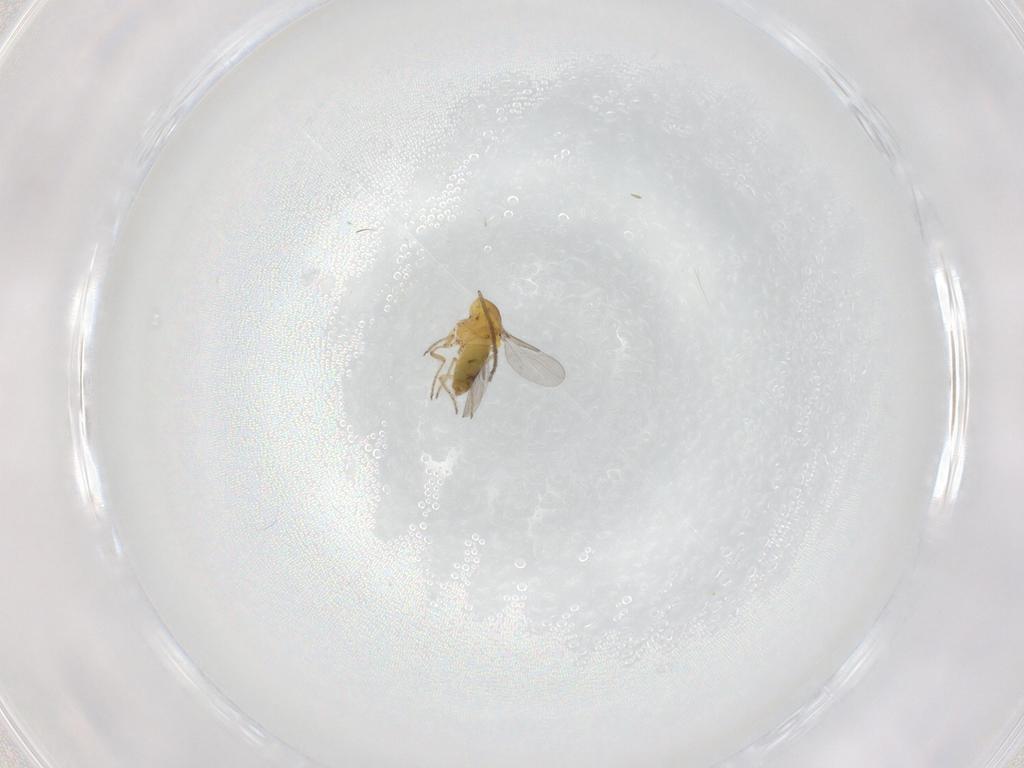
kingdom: Animalia
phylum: Arthropoda
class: Insecta
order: Diptera
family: Ceratopogonidae
